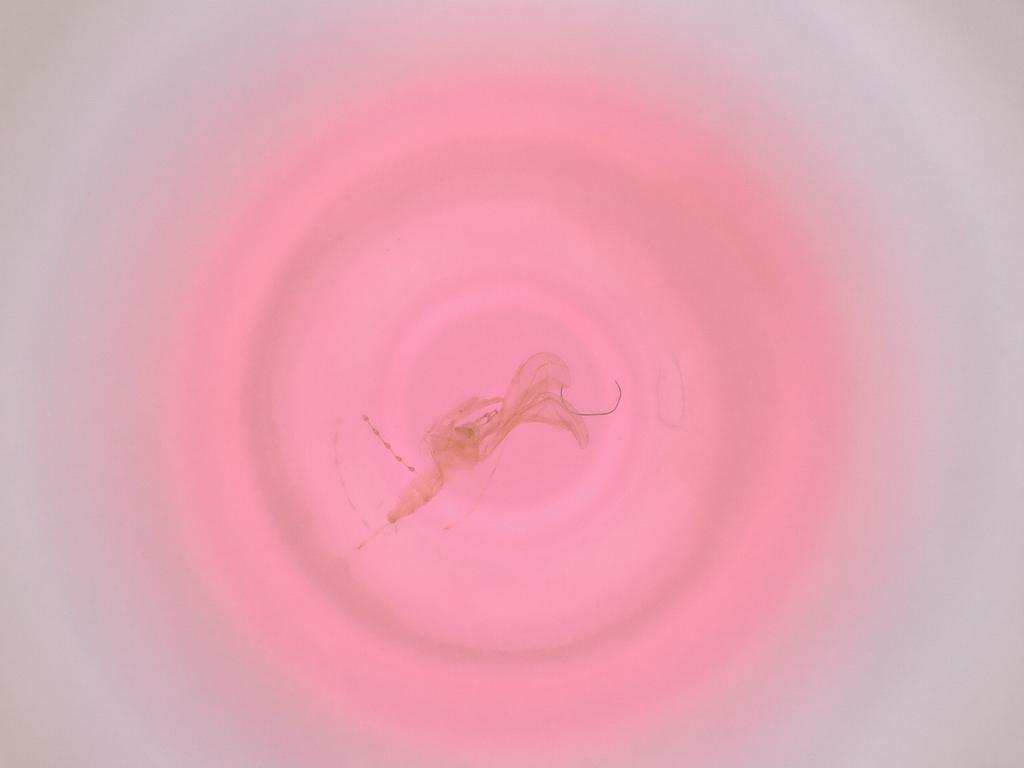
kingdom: Animalia
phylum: Arthropoda
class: Insecta
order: Diptera
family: Cecidomyiidae
